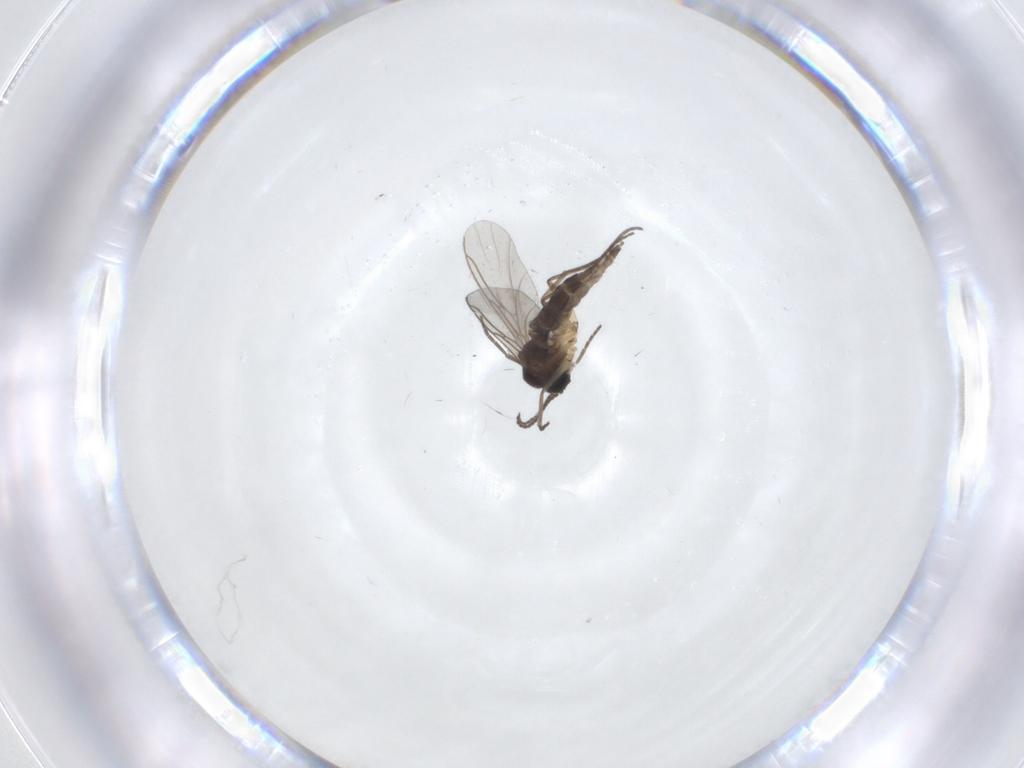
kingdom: Animalia
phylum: Arthropoda
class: Insecta
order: Diptera
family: Sciaridae
